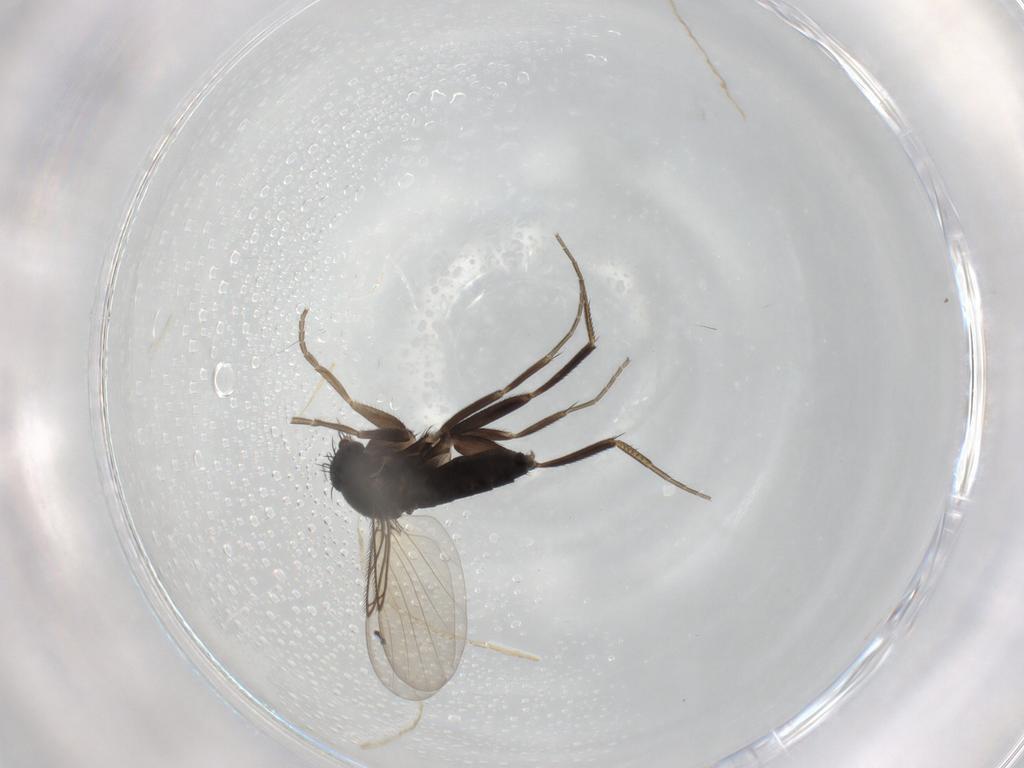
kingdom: Animalia
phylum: Arthropoda
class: Insecta
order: Diptera
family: Chironomidae
